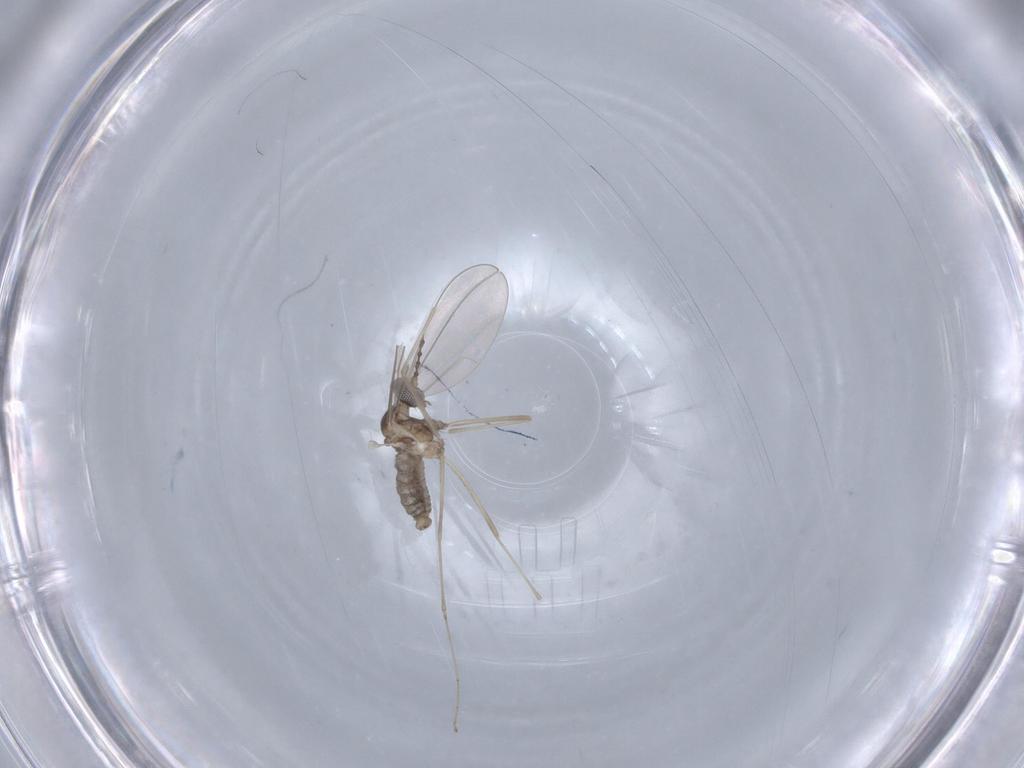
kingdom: Animalia
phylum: Arthropoda
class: Insecta
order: Diptera
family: Cecidomyiidae
